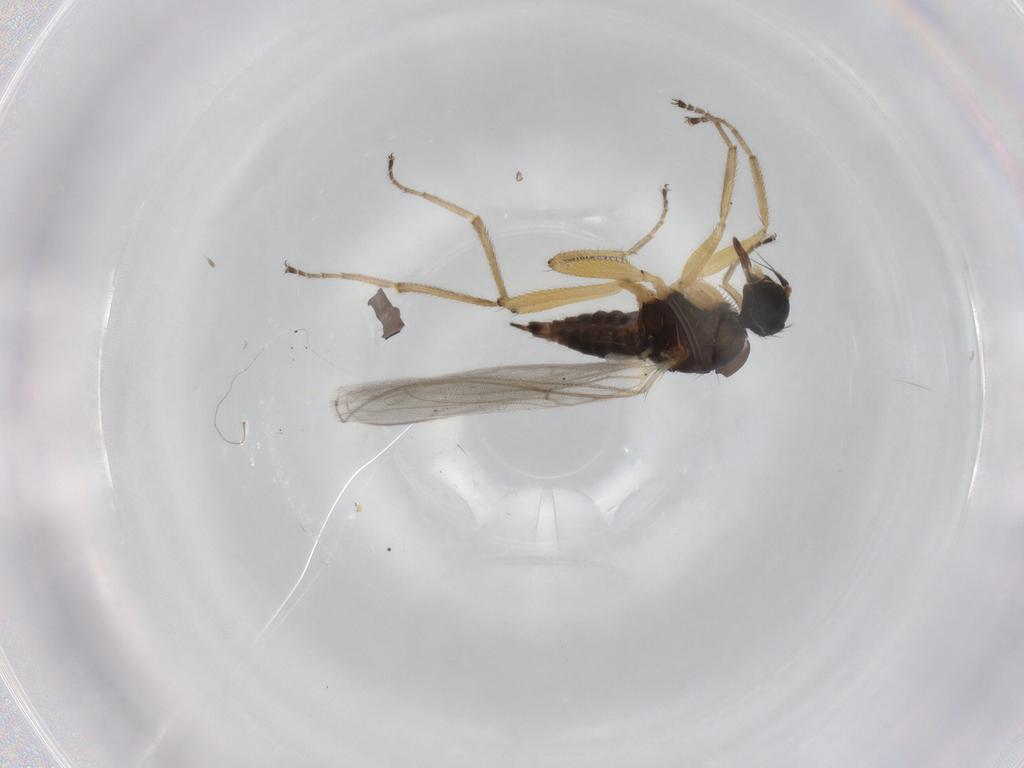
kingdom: Animalia
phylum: Arthropoda
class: Insecta
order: Diptera
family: Hybotidae
